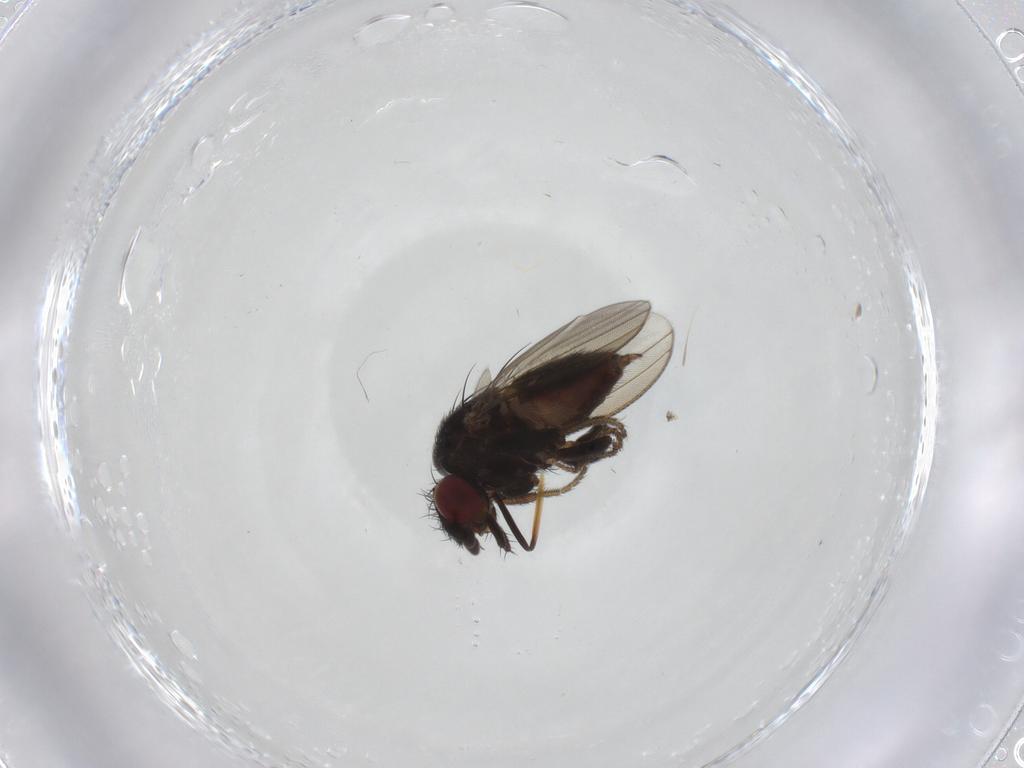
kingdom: Animalia
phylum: Arthropoda
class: Insecta
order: Diptera
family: Milichiidae
